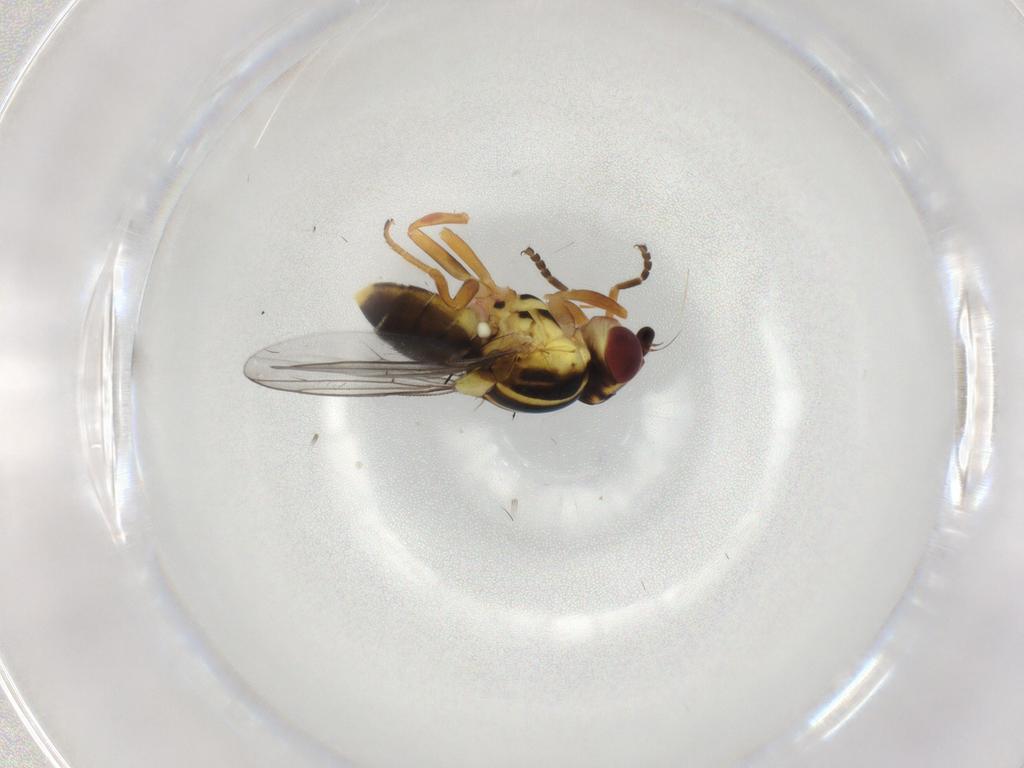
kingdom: Animalia
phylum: Arthropoda
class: Insecta
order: Diptera
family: Chloropidae
